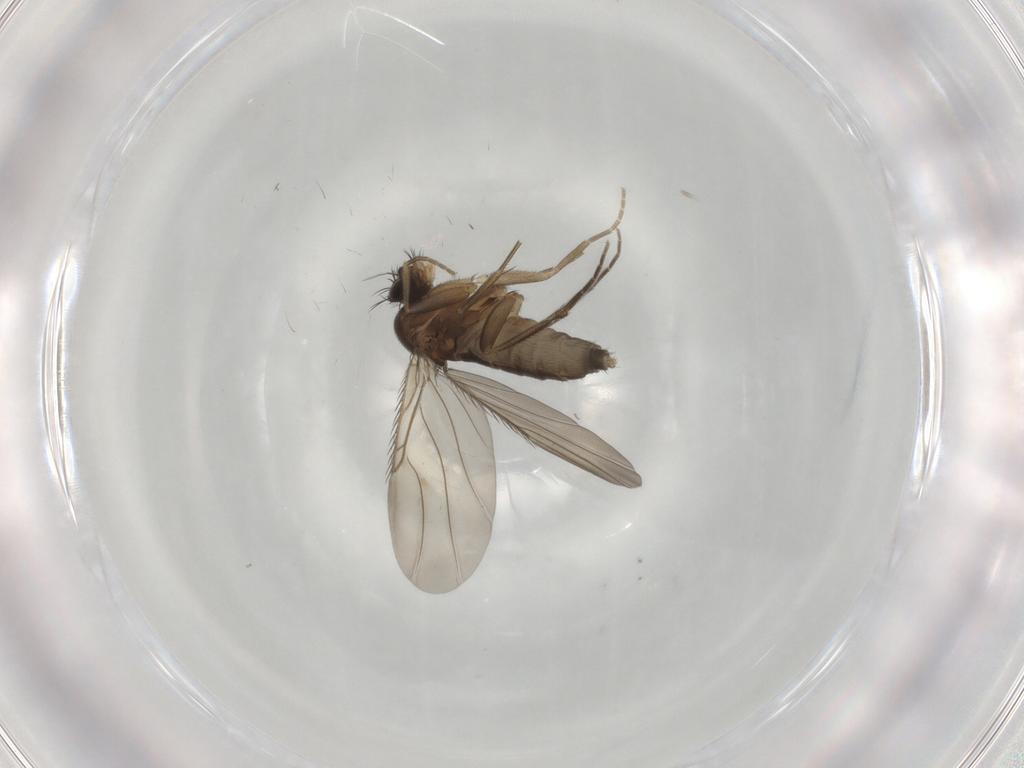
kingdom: Animalia
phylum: Arthropoda
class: Insecta
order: Diptera
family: Phoridae
